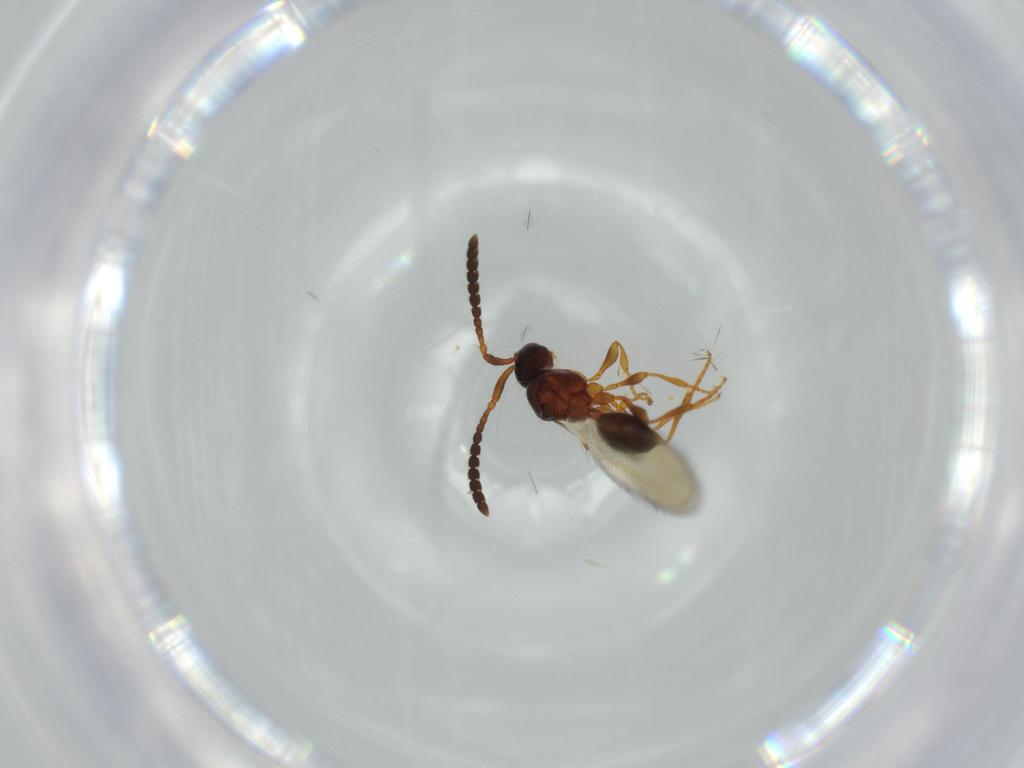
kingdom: Animalia
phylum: Arthropoda
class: Insecta
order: Hymenoptera
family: Diapriidae
